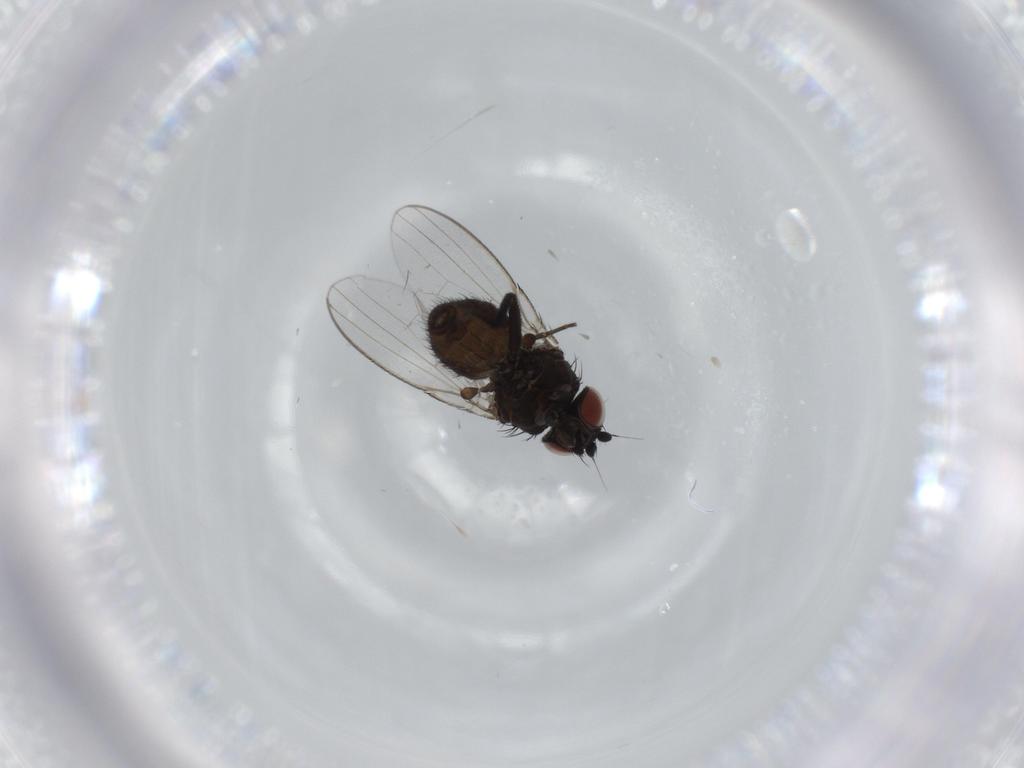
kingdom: Animalia
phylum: Arthropoda
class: Insecta
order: Diptera
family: Milichiidae
